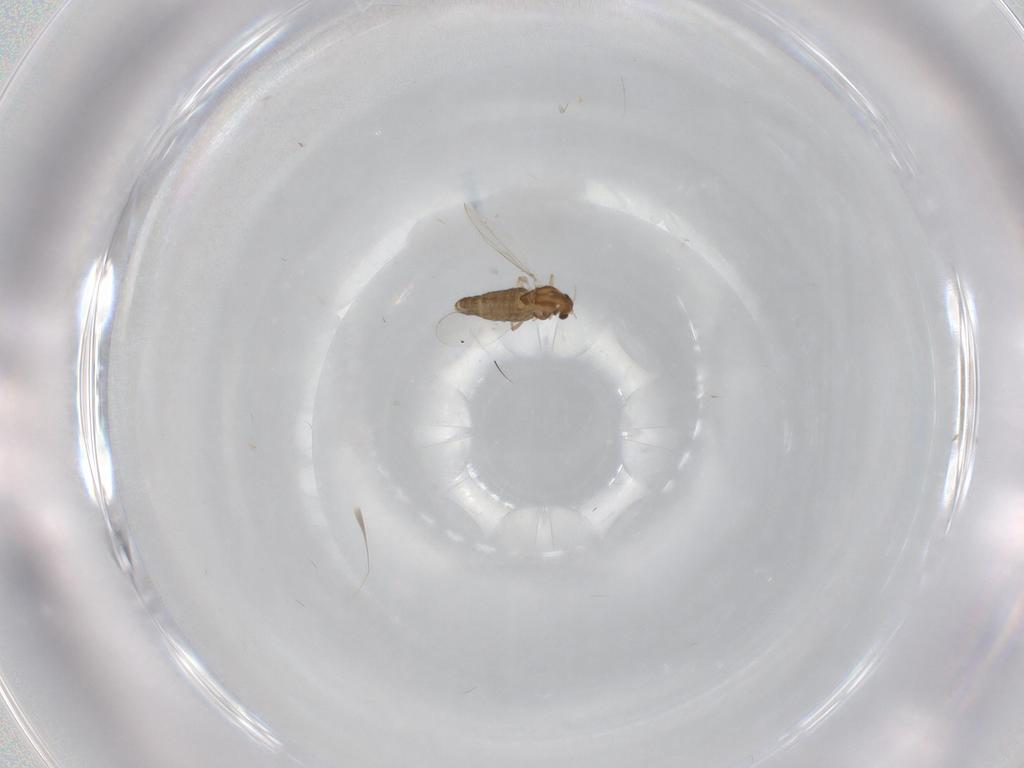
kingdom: Animalia
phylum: Arthropoda
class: Insecta
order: Diptera
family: Chironomidae
